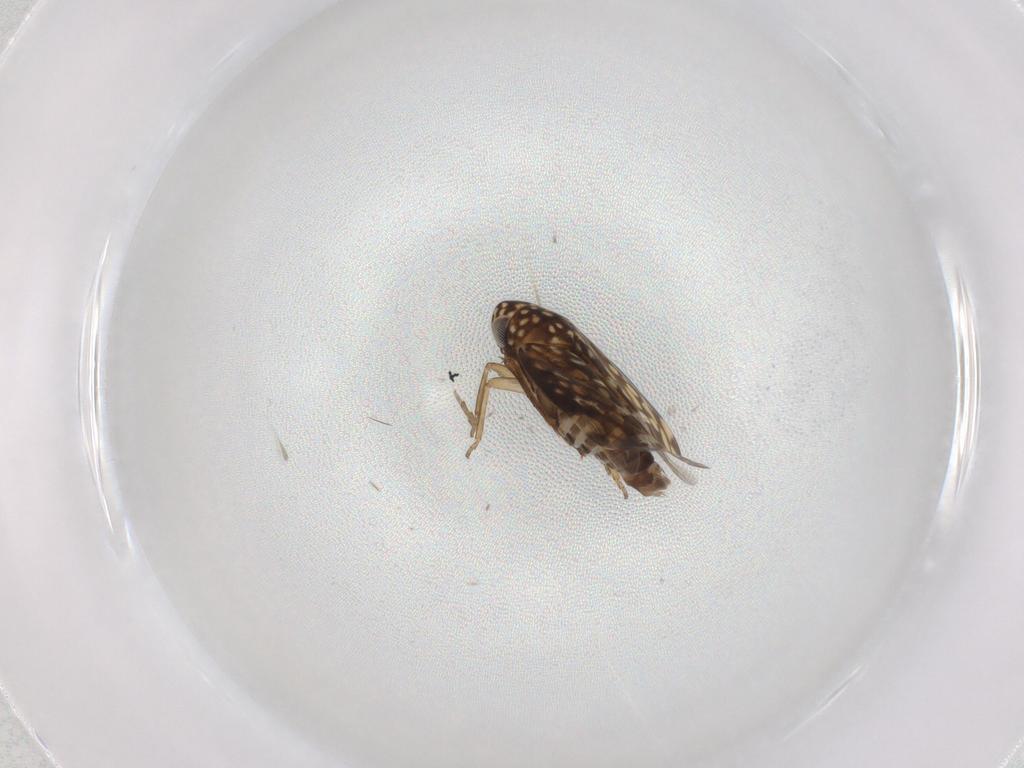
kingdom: Animalia
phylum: Arthropoda
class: Insecta
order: Hemiptera
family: Cicadellidae
